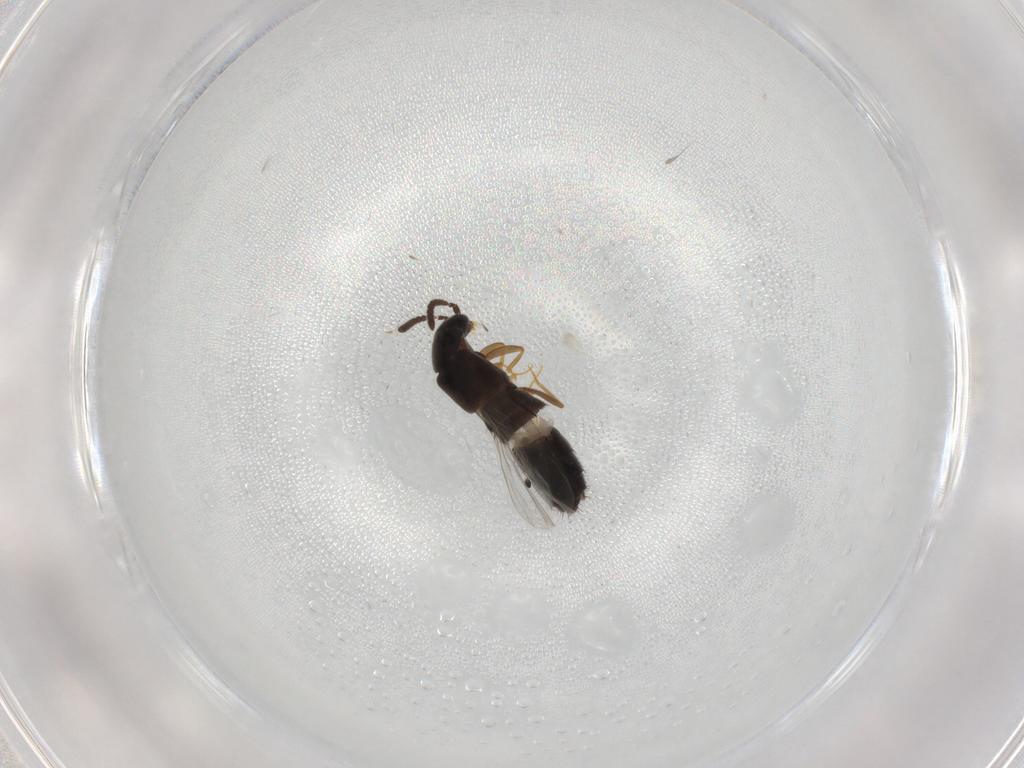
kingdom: Animalia
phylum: Arthropoda
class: Insecta
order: Coleoptera
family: Staphylinidae
